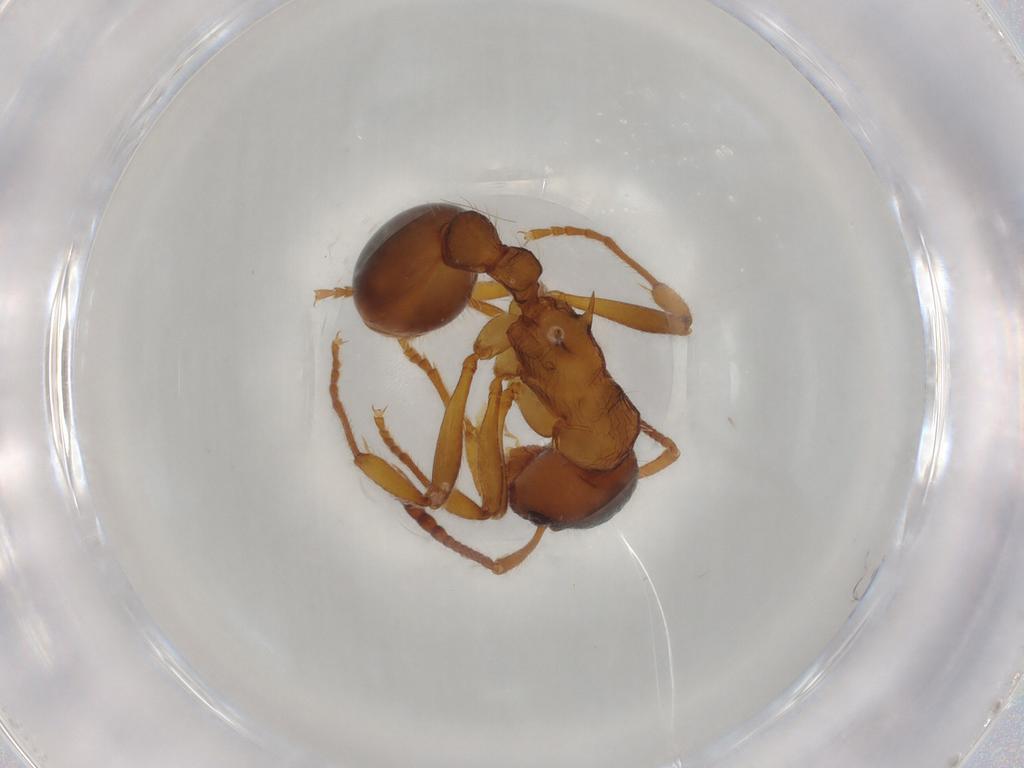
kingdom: Animalia
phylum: Arthropoda
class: Insecta
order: Hymenoptera
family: Formicidae
